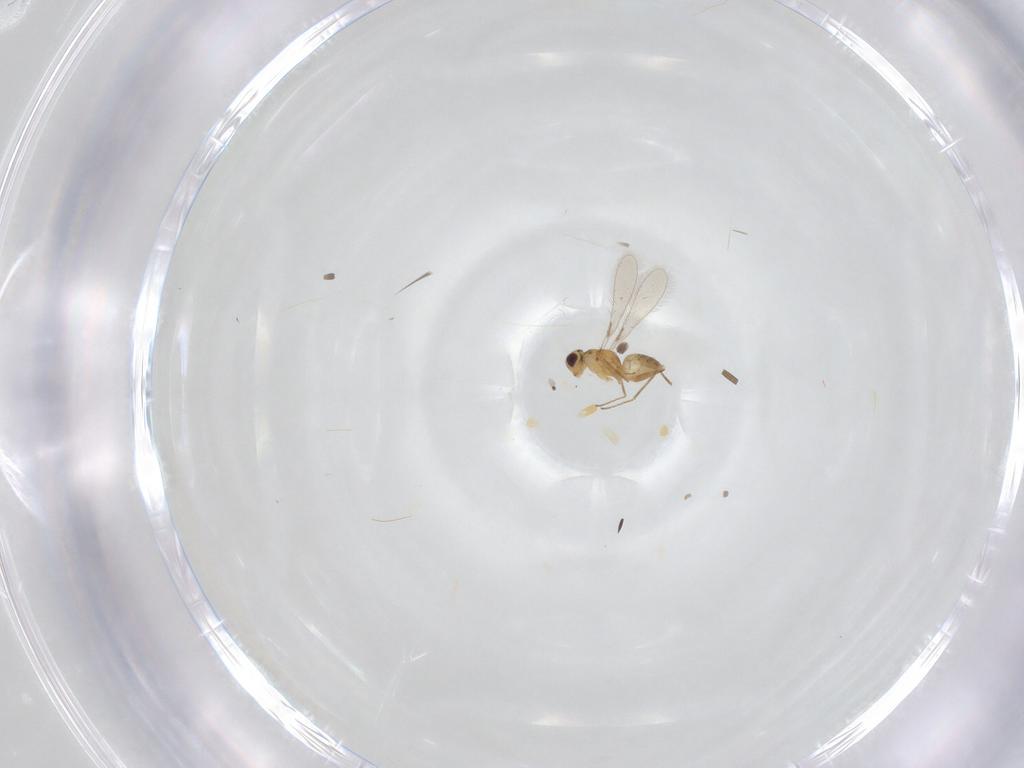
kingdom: Animalia
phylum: Arthropoda
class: Insecta
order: Hymenoptera
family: Mymaridae
